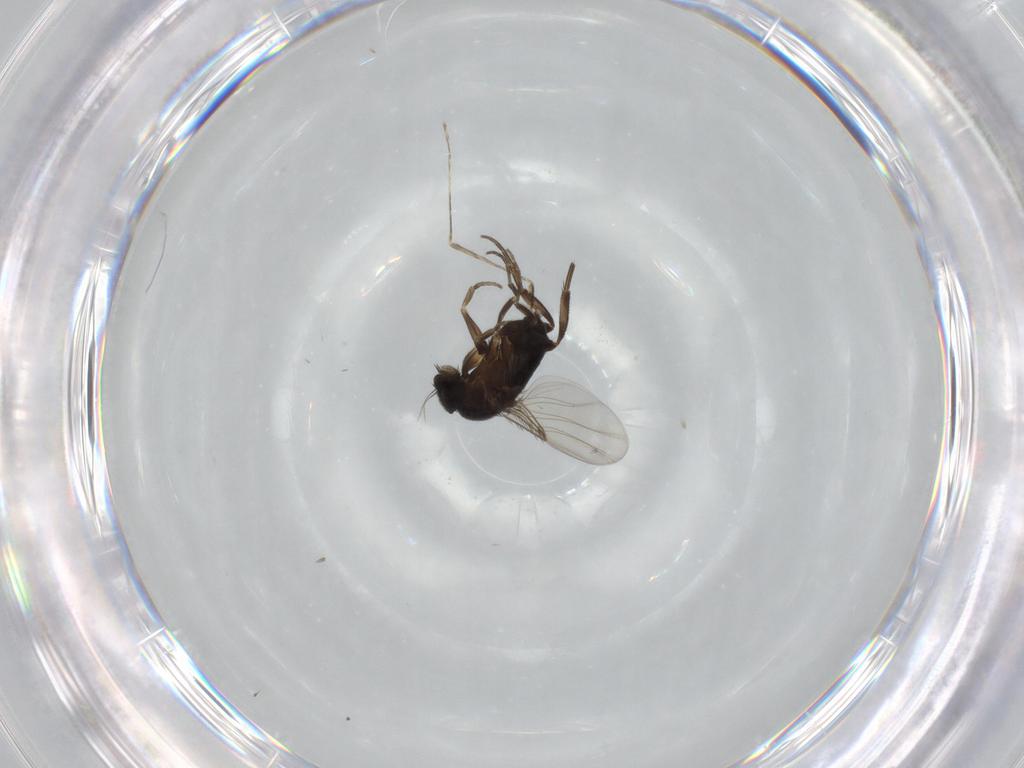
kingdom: Animalia
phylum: Arthropoda
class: Insecta
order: Diptera
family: Phoridae
